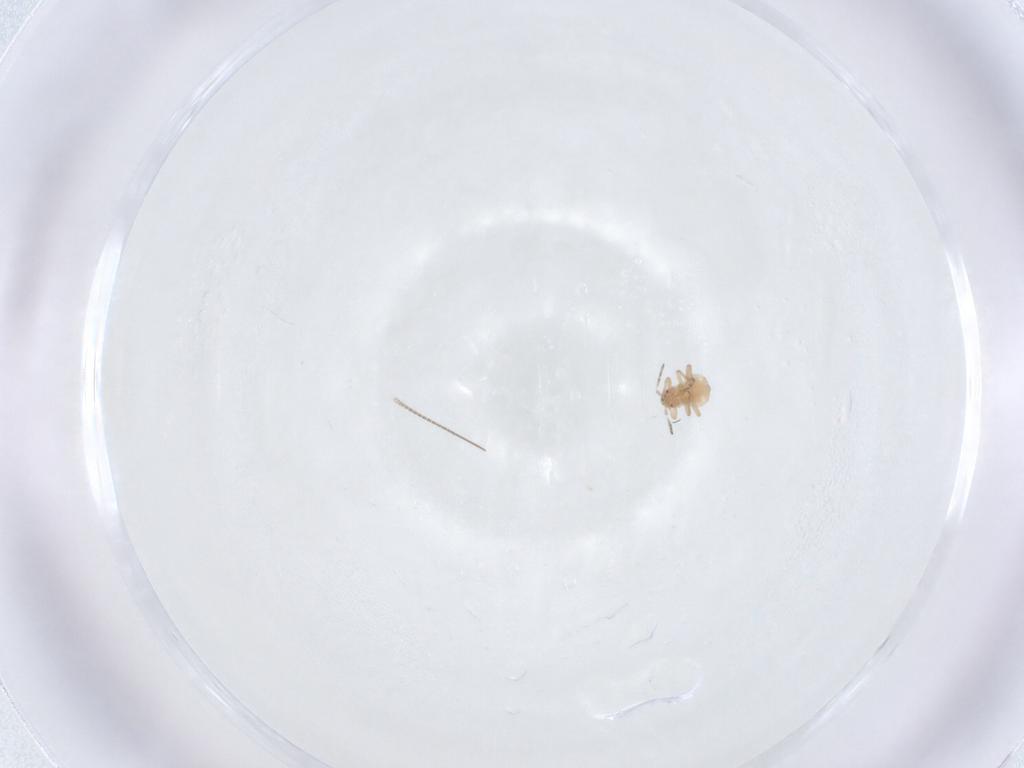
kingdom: Animalia
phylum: Arthropoda
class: Insecta
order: Diptera
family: Chironomidae
